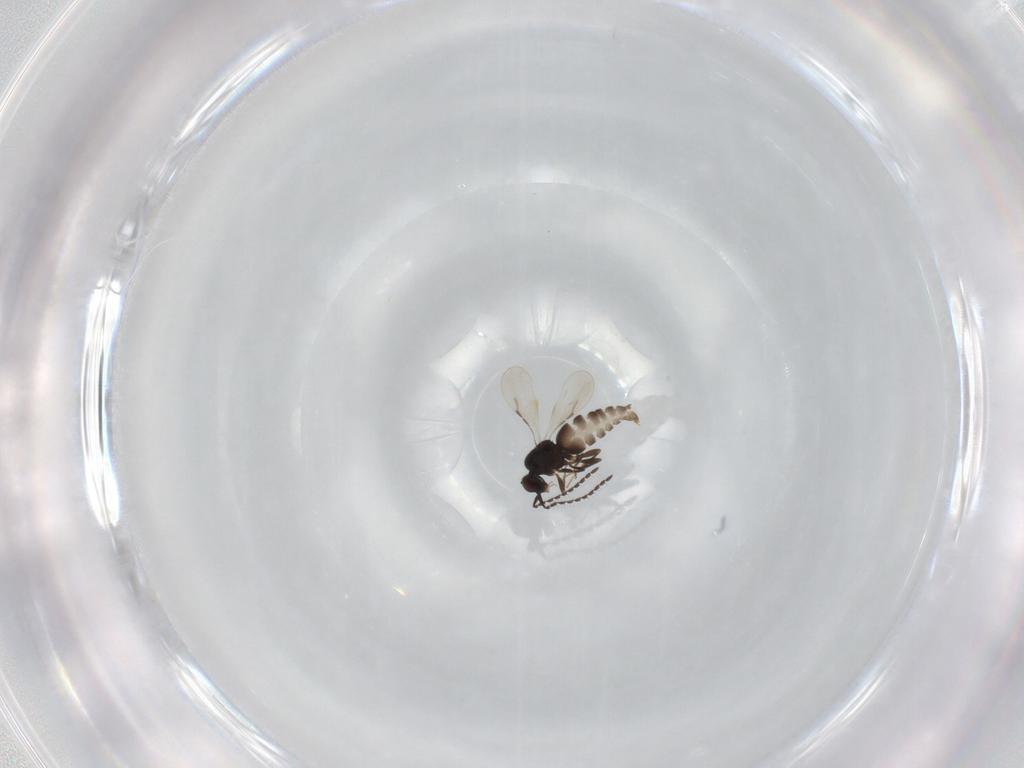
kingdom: Animalia
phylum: Arthropoda
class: Insecta
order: Hymenoptera
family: Ceraphronidae
